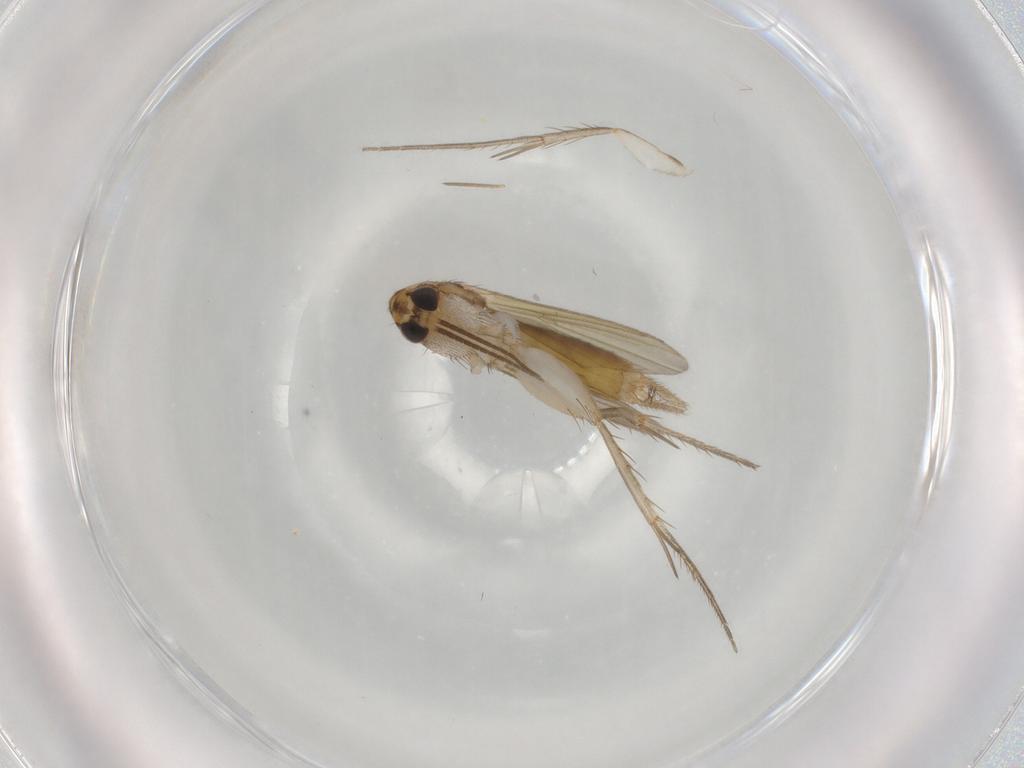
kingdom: Animalia
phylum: Arthropoda
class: Insecta
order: Diptera
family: Mycetophilidae
